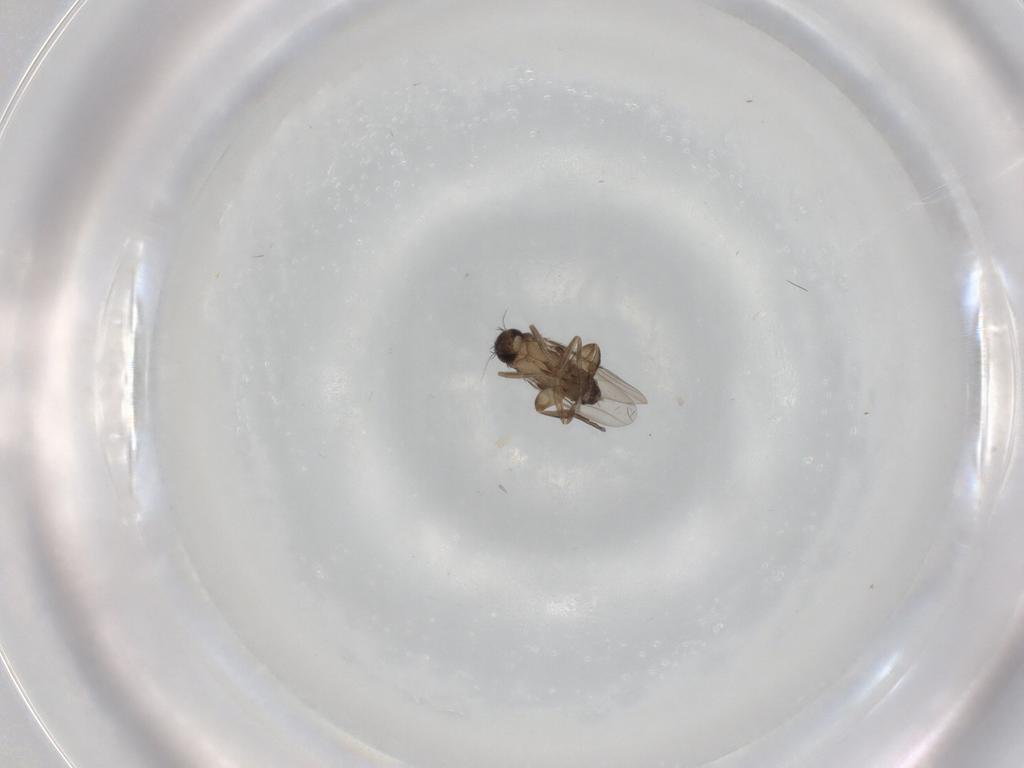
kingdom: Animalia
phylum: Arthropoda
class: Insecta
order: Diptera
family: Phoridae
